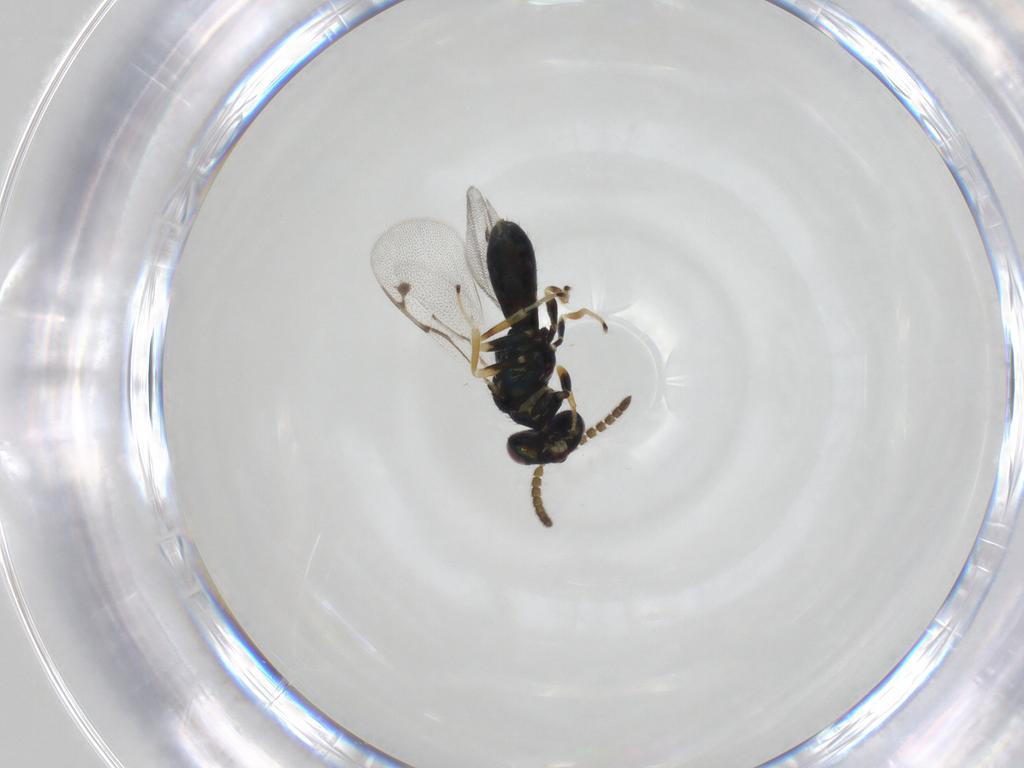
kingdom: Animalia
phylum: Arthropoda
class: Insecta
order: Hymenoptera
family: Pirenidae
